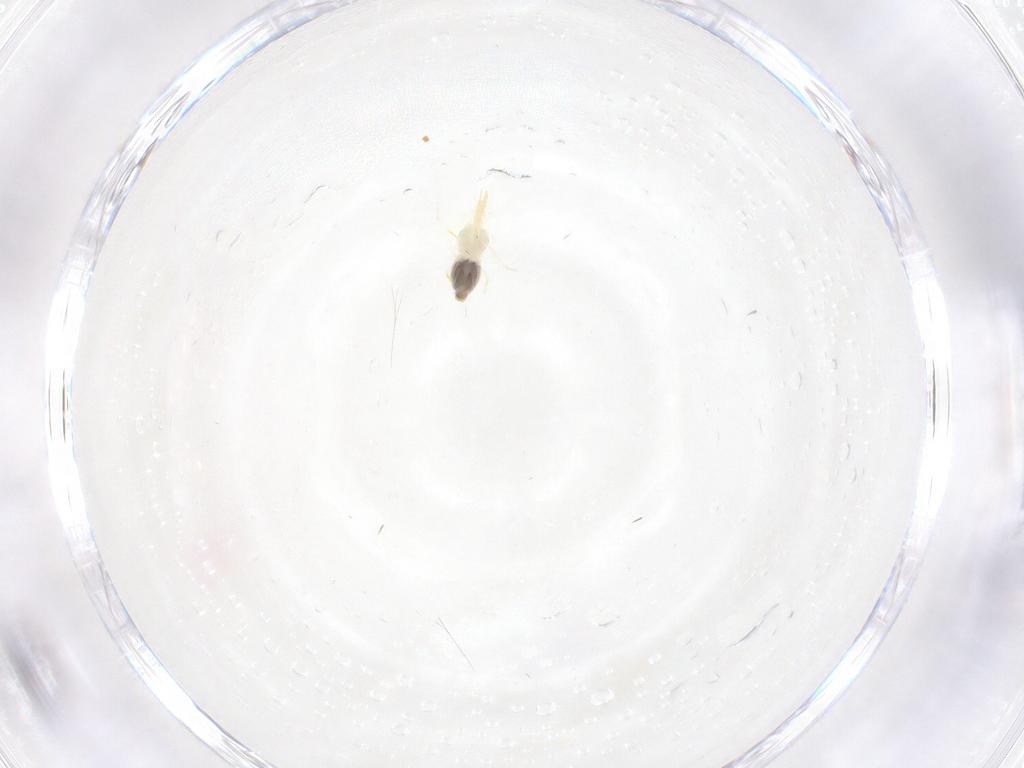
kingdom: Animalia
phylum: Arthropoda
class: Insecta
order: Hemiptera
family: Aleyrodidae
